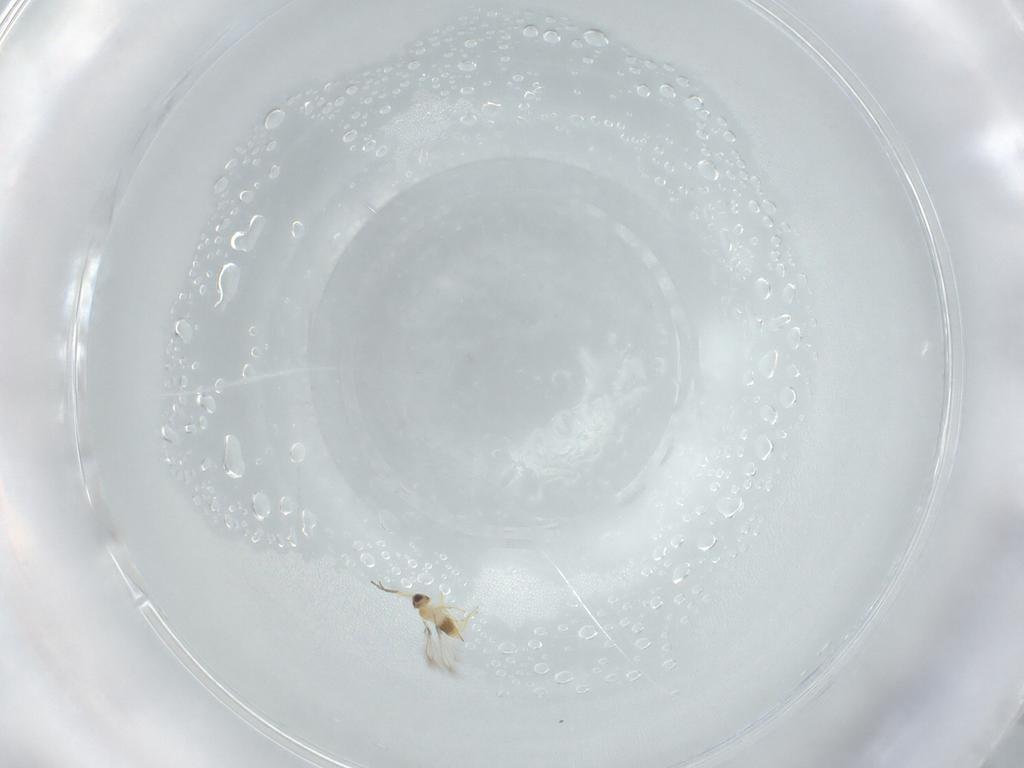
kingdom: Animalia
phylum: Arthropoda
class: Insecta
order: Hymenoptera
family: Mymaridae
